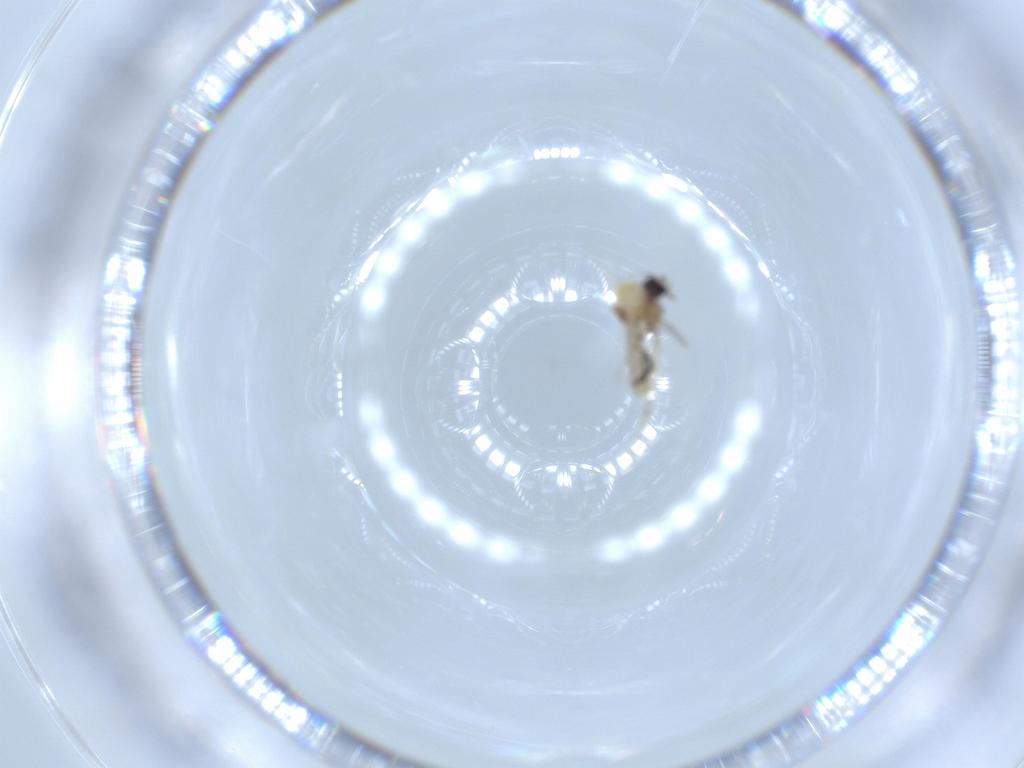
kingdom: Animalia
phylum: Arthropoda
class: Insecta
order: Diptera
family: Ceratopogonidae
